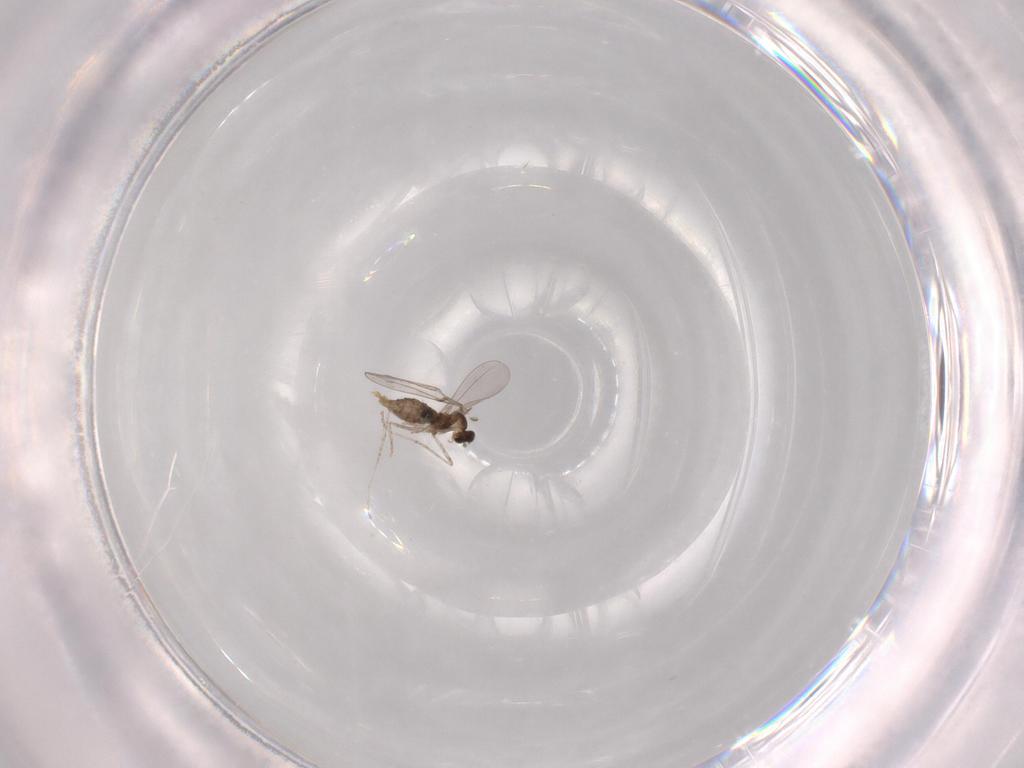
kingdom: Animalia
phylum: Arthropoda
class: Insecta
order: Diptera
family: Cecidomyiidae
